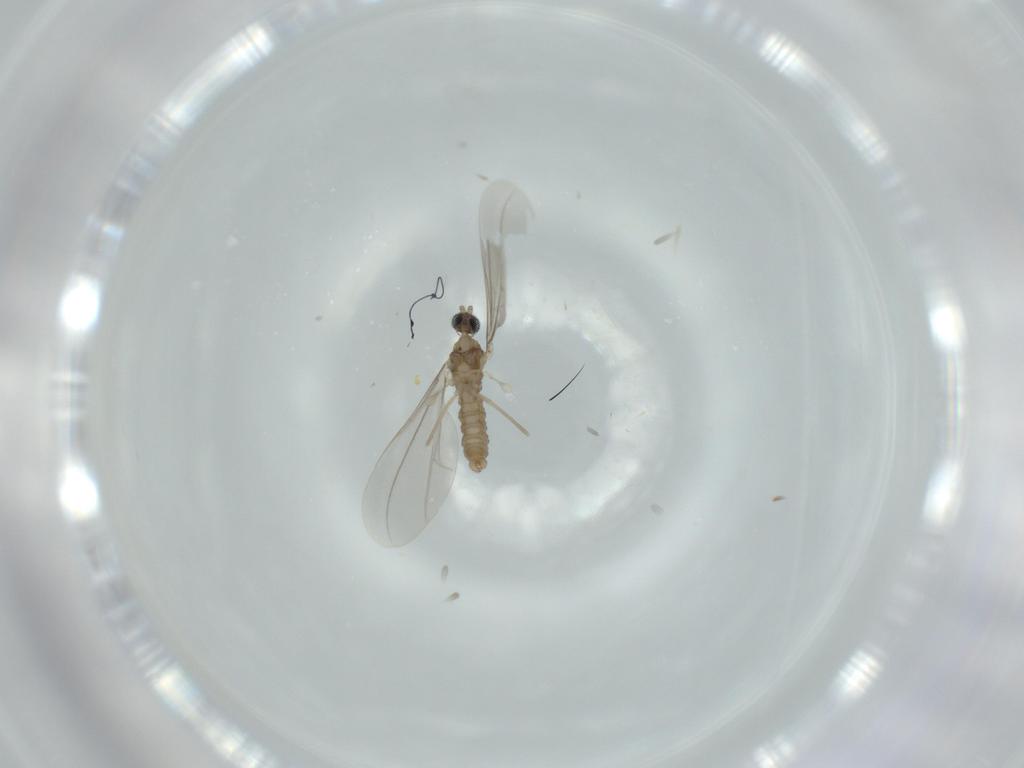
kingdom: Animalia
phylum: Arthropoda
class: Insecta
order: Diptera
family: Cecidomyiidae
